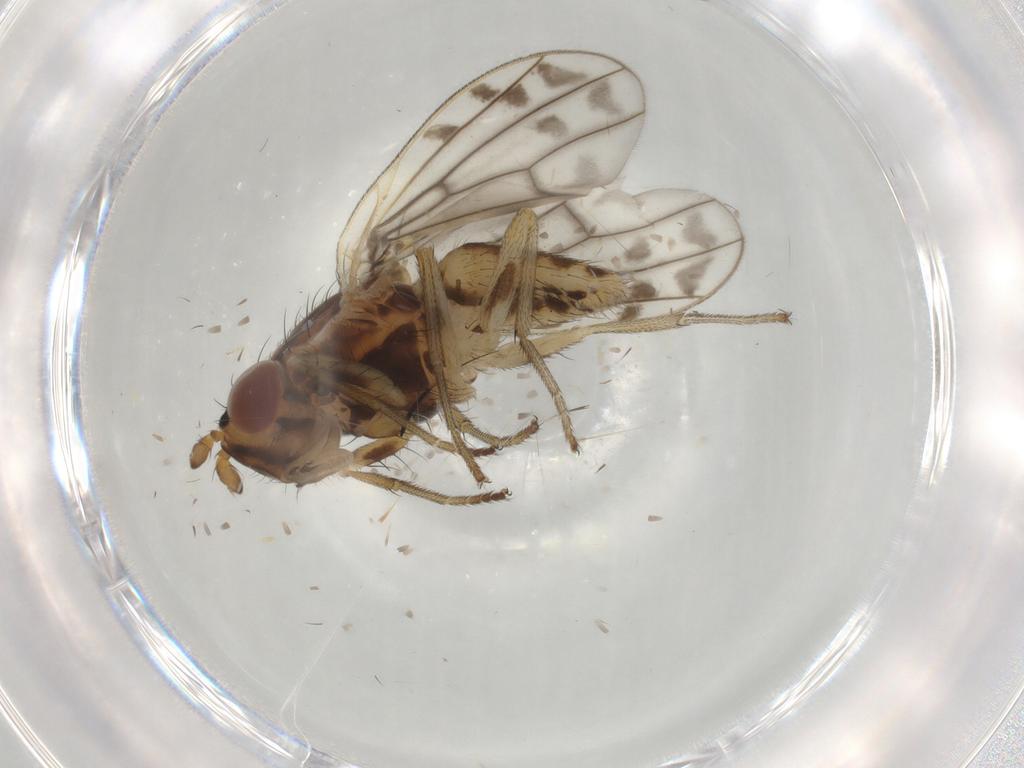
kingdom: Animalia
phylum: Arthropoda
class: Insecta
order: Diptera
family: Lauxaniidae
